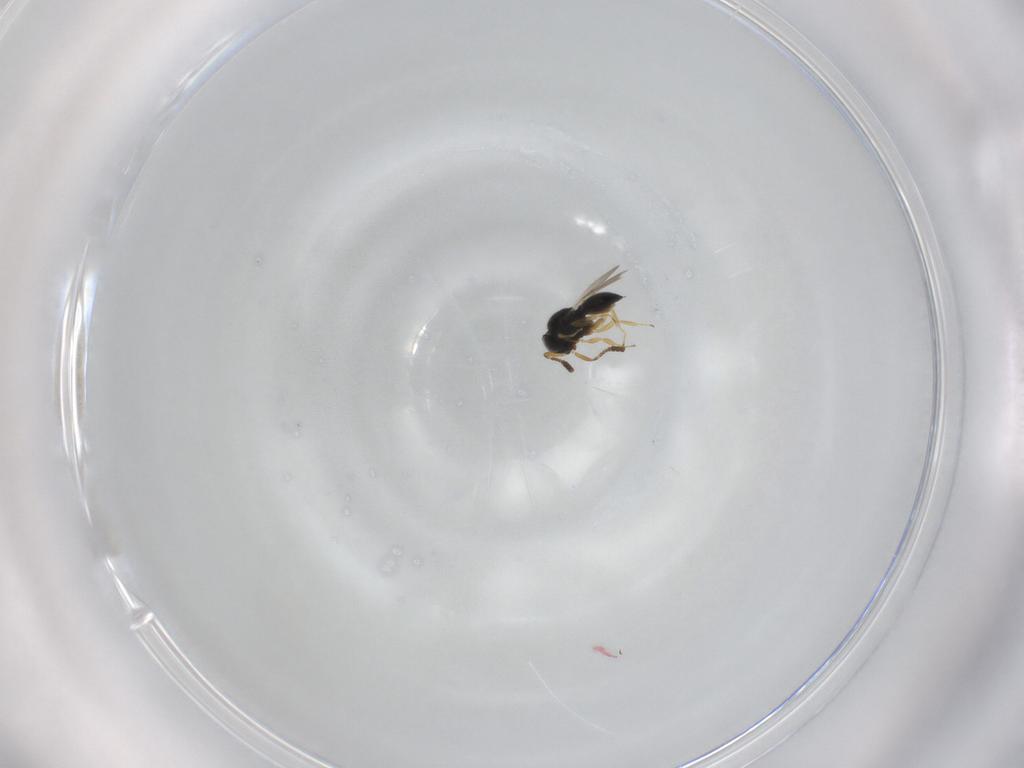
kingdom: Animalia
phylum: Arthropoda
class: Insecta
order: Hymenoptera
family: Scelionidae
